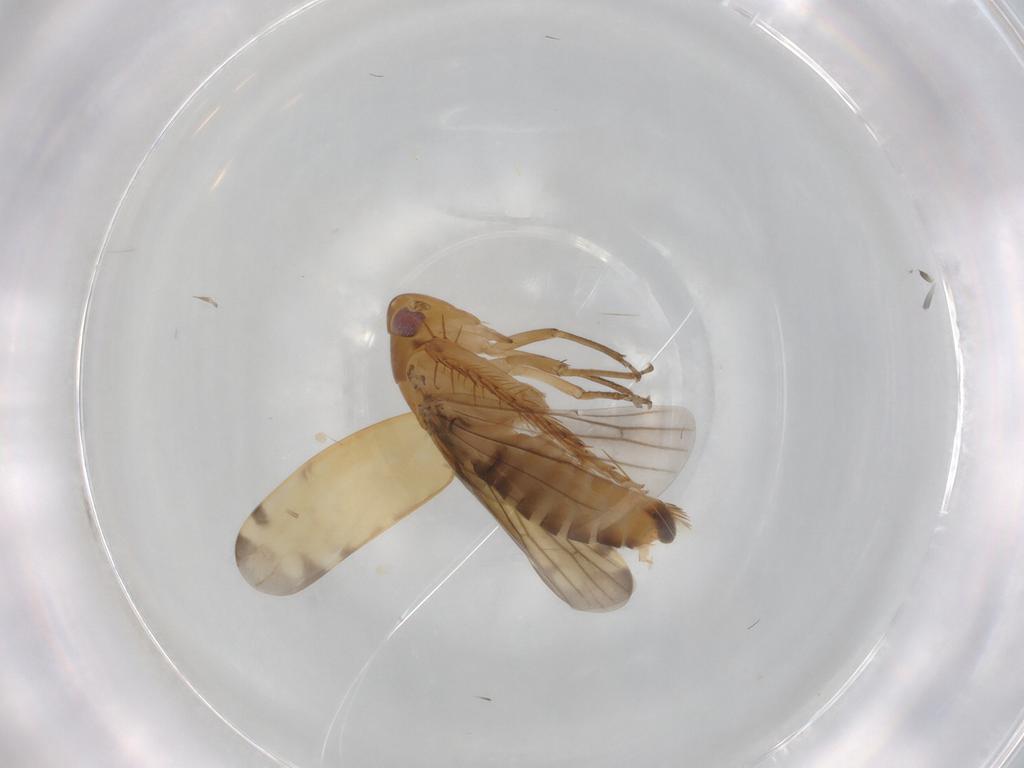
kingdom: Animalia
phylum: Arthropoda
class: Insecta
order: Hemiptera
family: Cicadellidae
